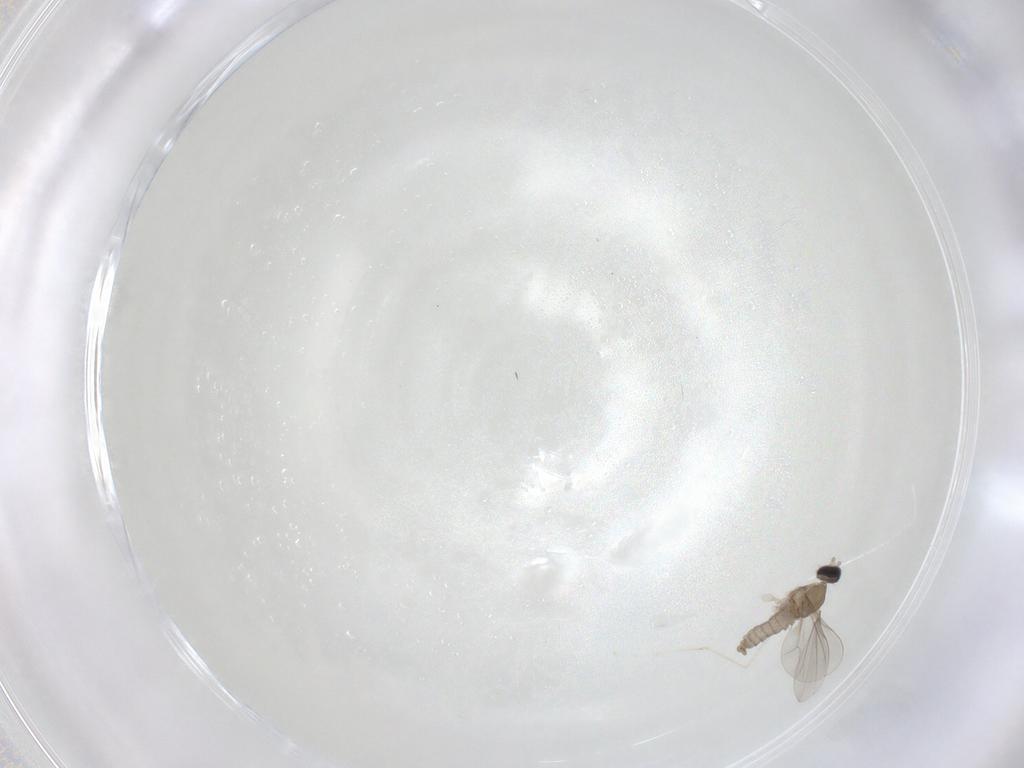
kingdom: Animalia
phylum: Arthropoda
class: Insecta
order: Diptera
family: Cecidomyiidae
